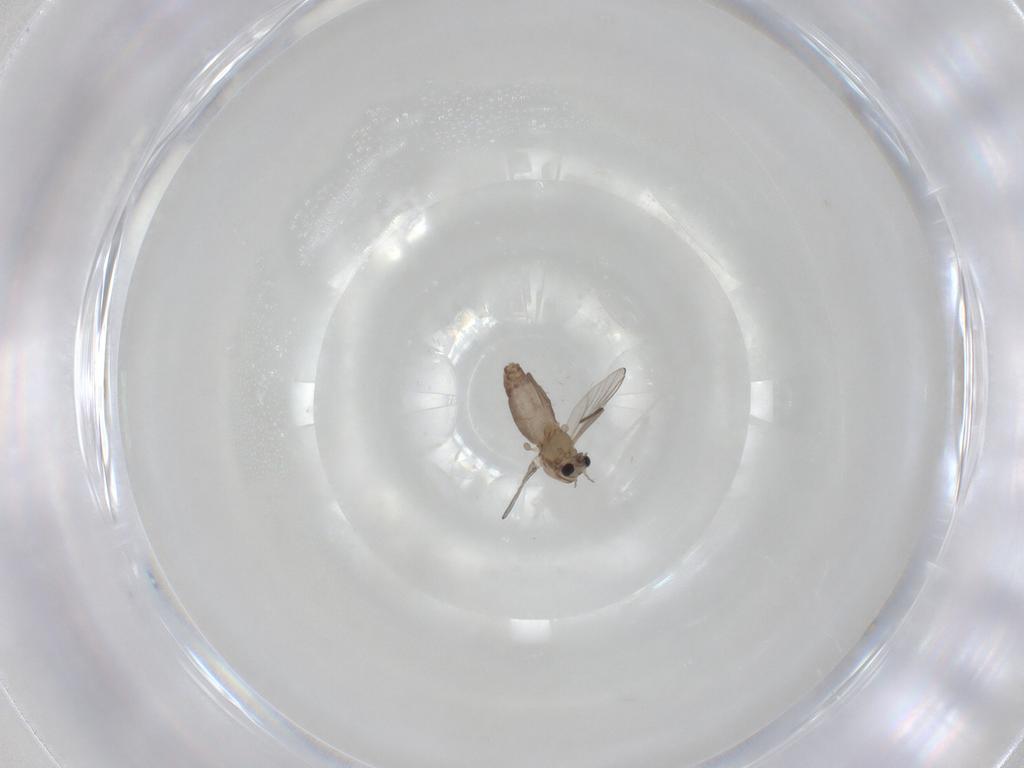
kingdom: Animalia
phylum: Arthropoda
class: Insecta
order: Diptera
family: Chironomidae
